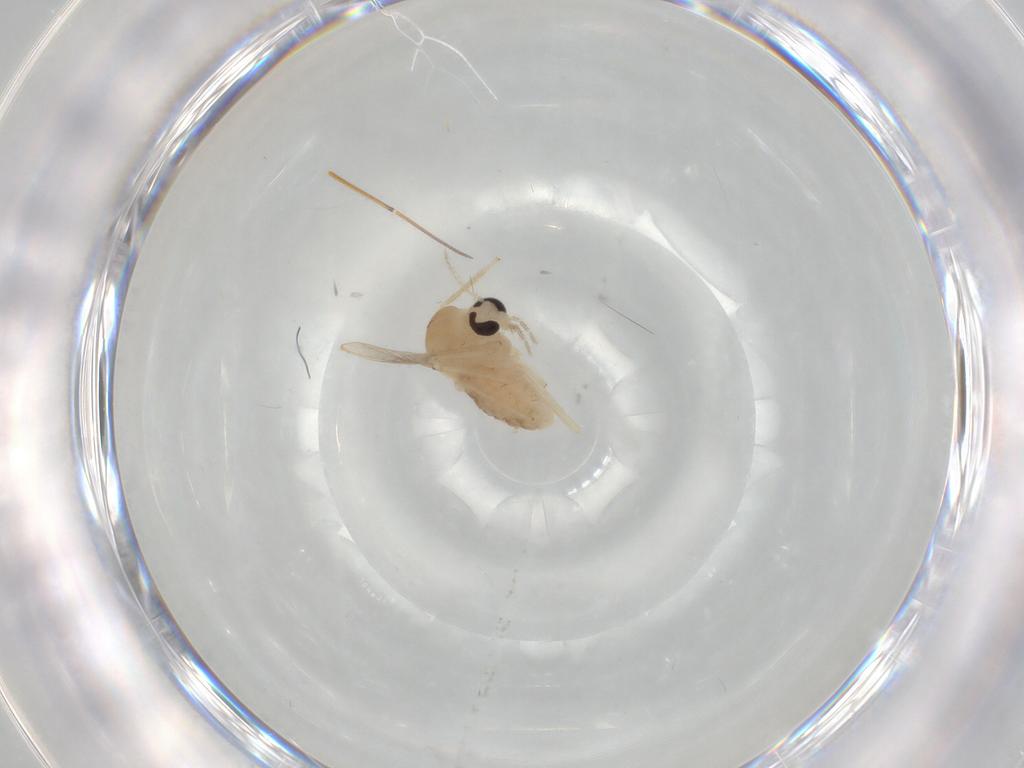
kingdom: Animalia
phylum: Arthropoda
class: Insecta
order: Diptera
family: Chironomidae
